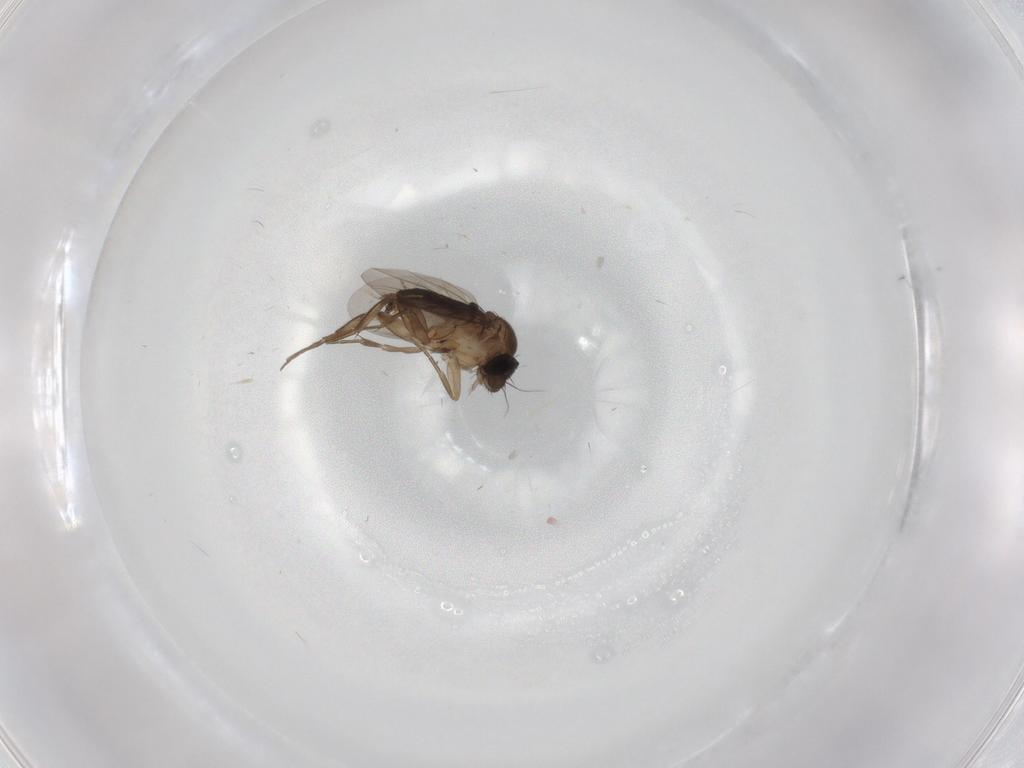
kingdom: Animalia
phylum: Arthropoda
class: Insecta
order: Diptera
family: Phoridae
